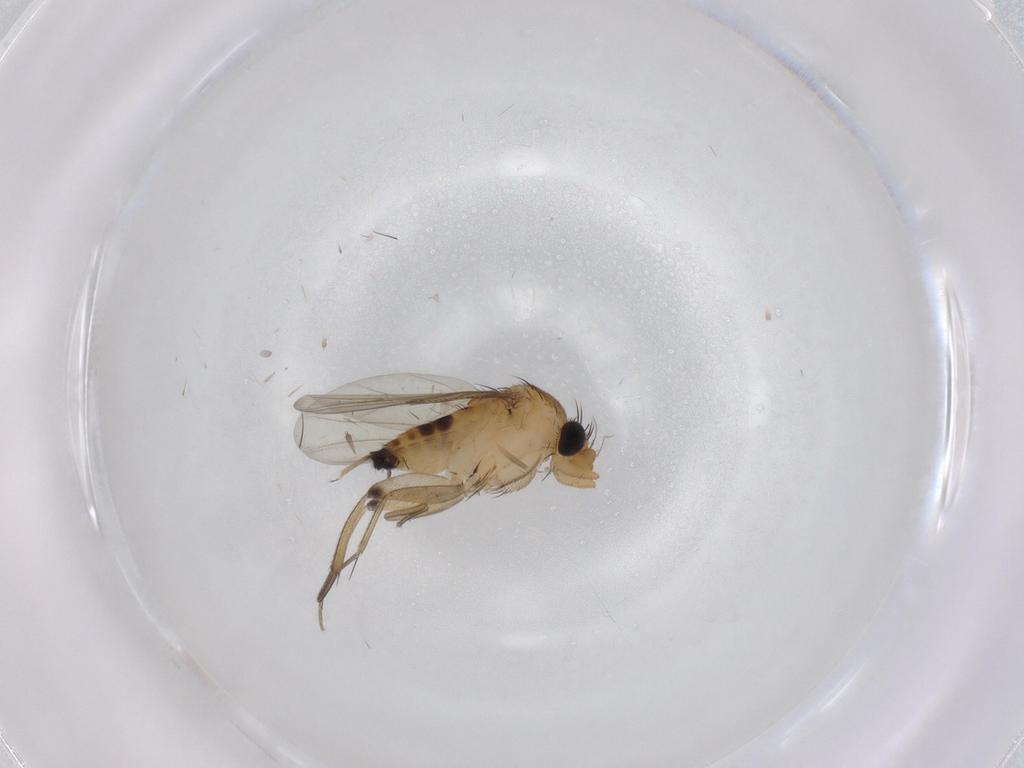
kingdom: Animalia
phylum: Arthropoda
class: Insecta
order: Diptera
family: Phoridae
